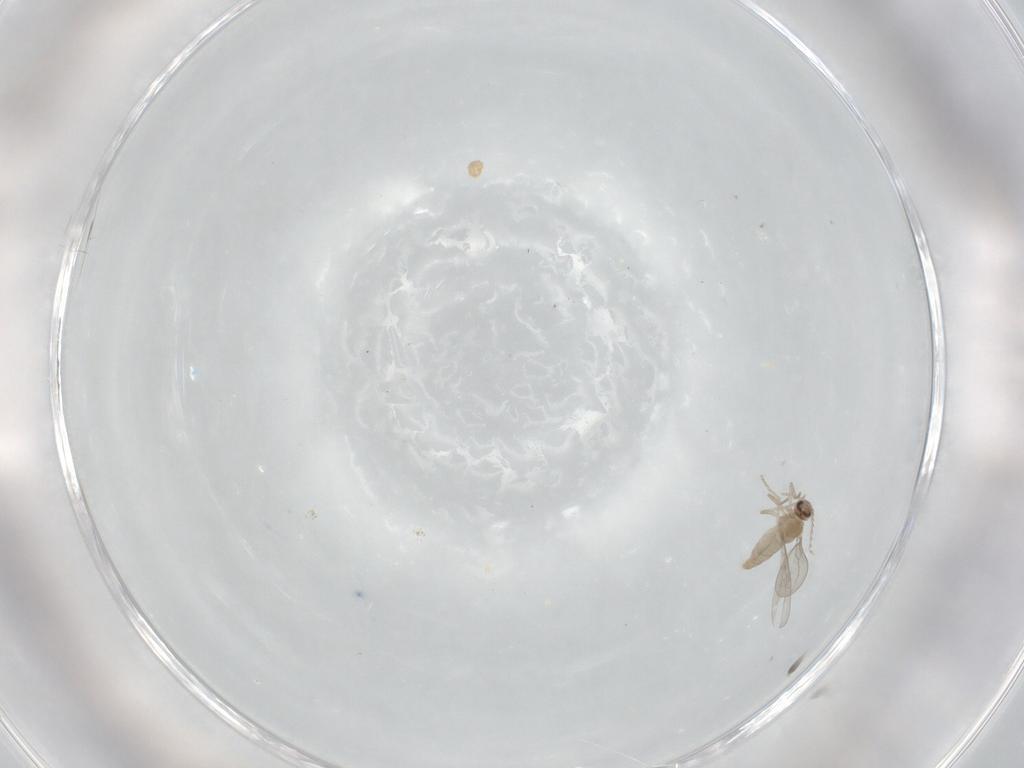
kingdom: Animalia
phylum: Arthropoda
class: Insecta
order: Diptera
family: Cecidomyiidae
